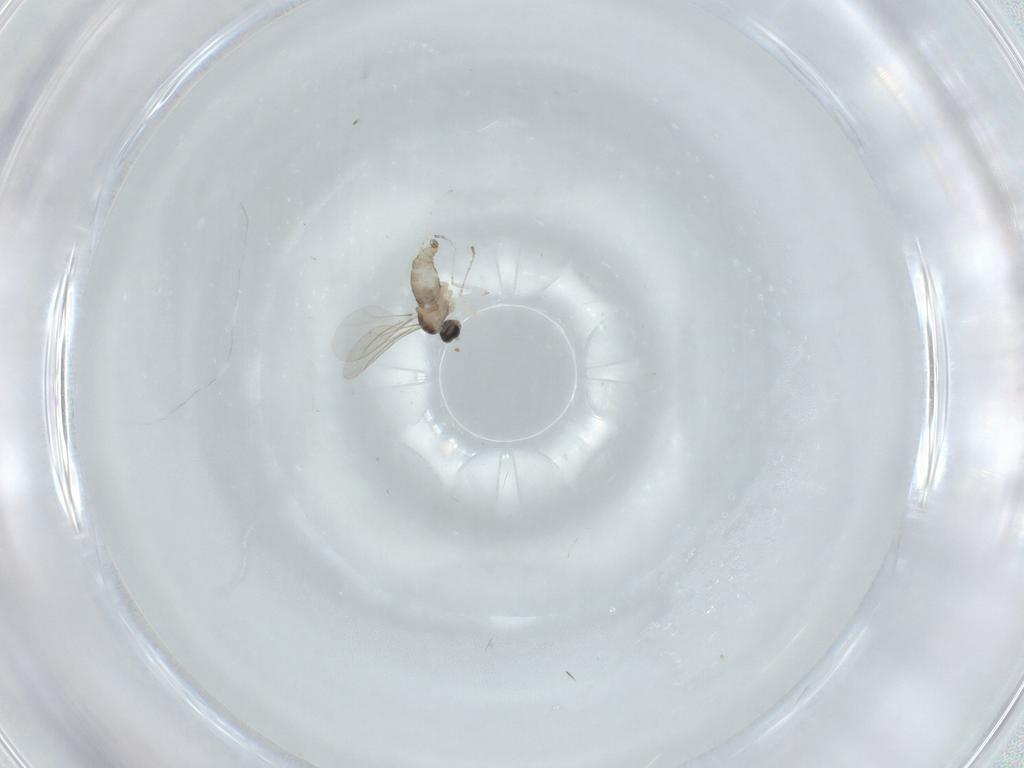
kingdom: Animalia
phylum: Arthropoda
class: Insecta
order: Diptera
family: Cecidomyiidae
